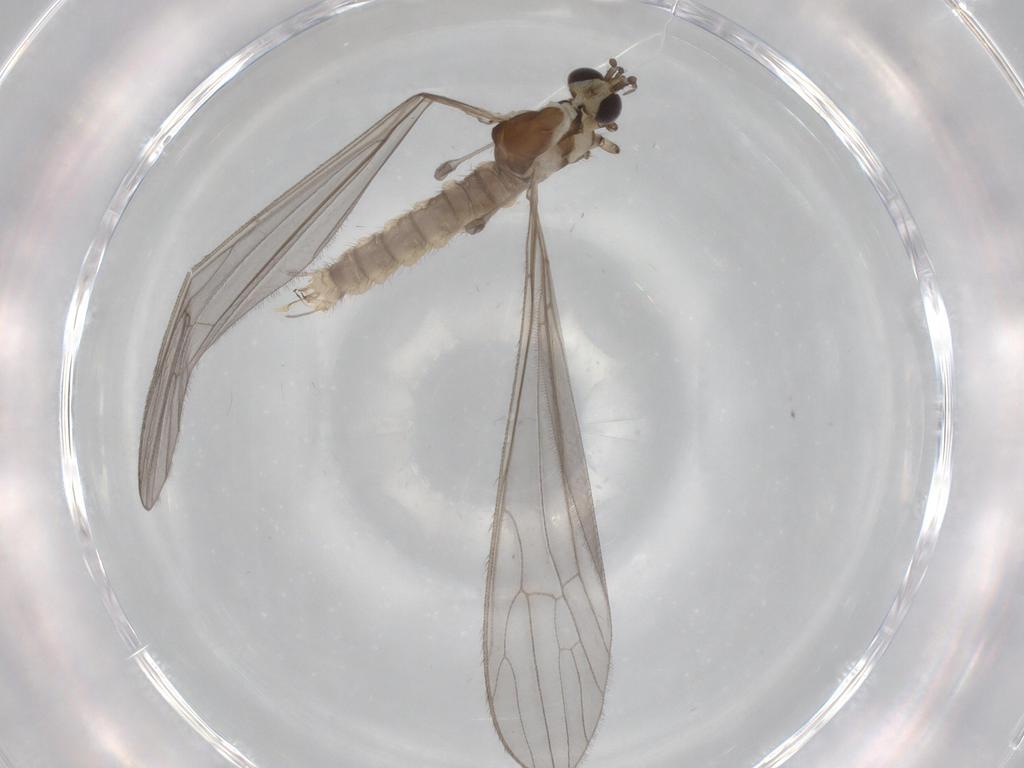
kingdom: Animalia
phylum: Arthropoda
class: Insecta
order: Diptera
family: Limoniidae
